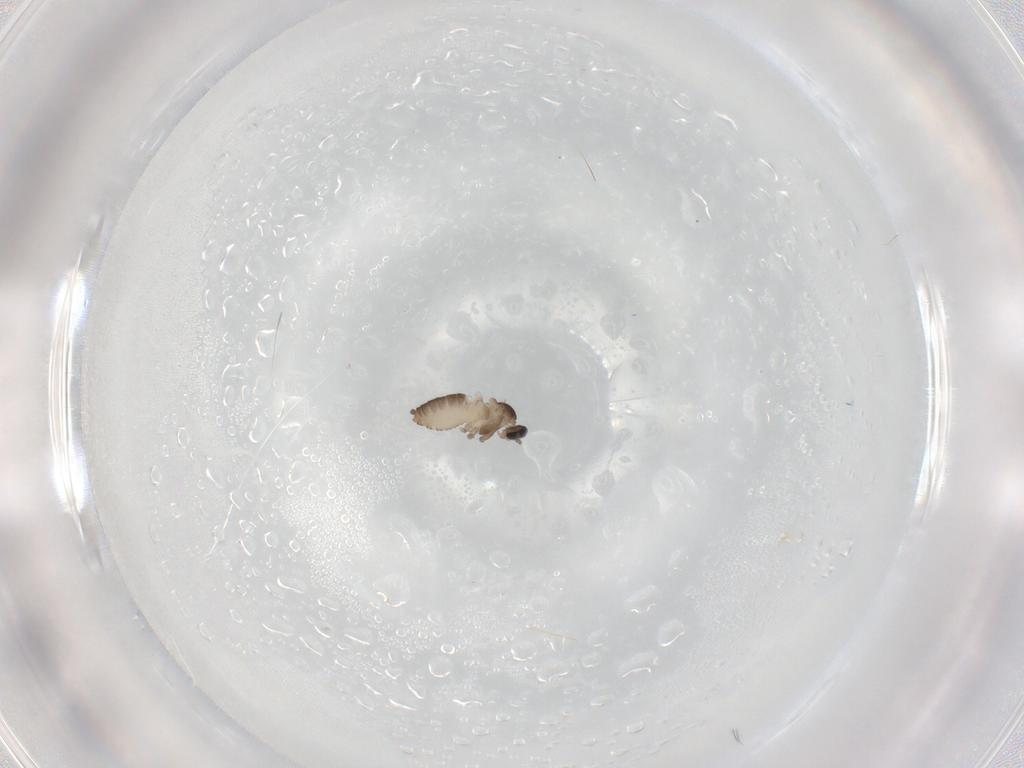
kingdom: Animalia
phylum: Arthropoda
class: Insecta
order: Diptera
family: Cecidomyiidae
